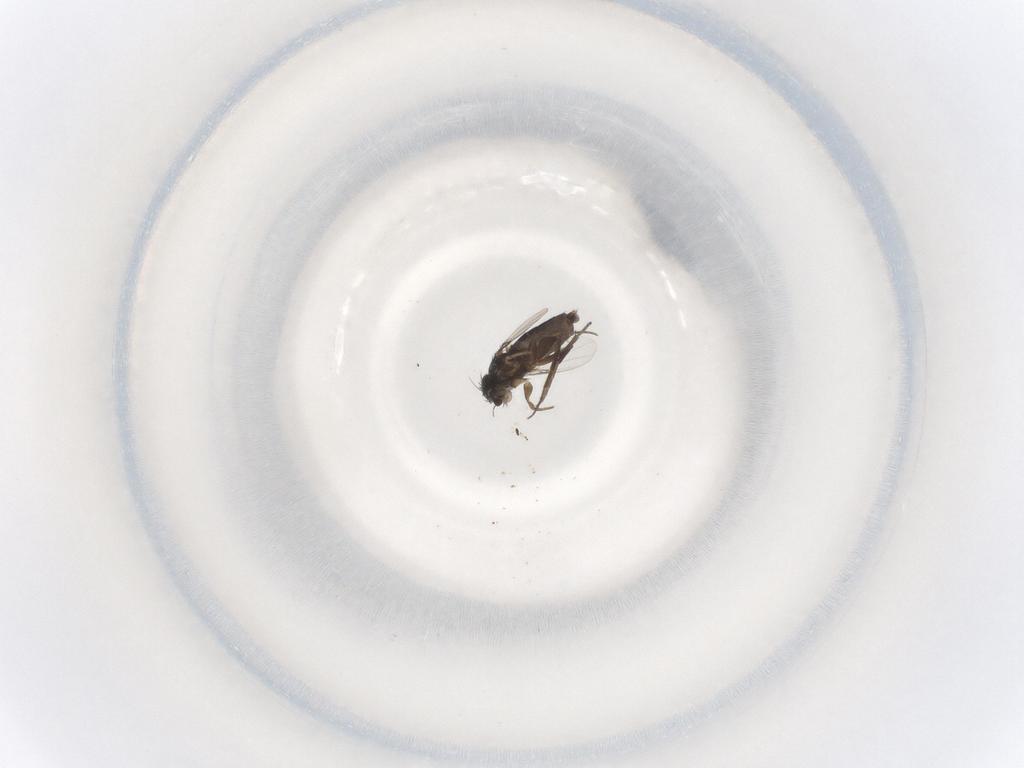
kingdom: Animalia
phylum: Arthropoda
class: Insecta
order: Diptera
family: Phoridae
